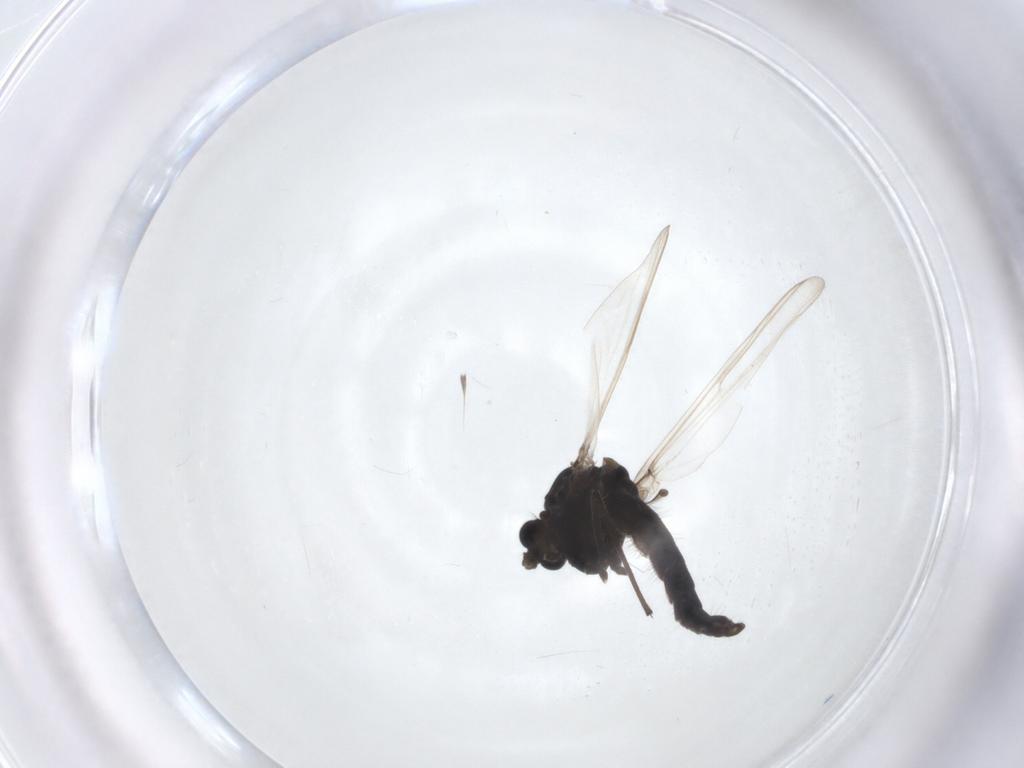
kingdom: Animalia
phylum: Arthropoda
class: Insecta
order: Diptera
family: Chironomidae
